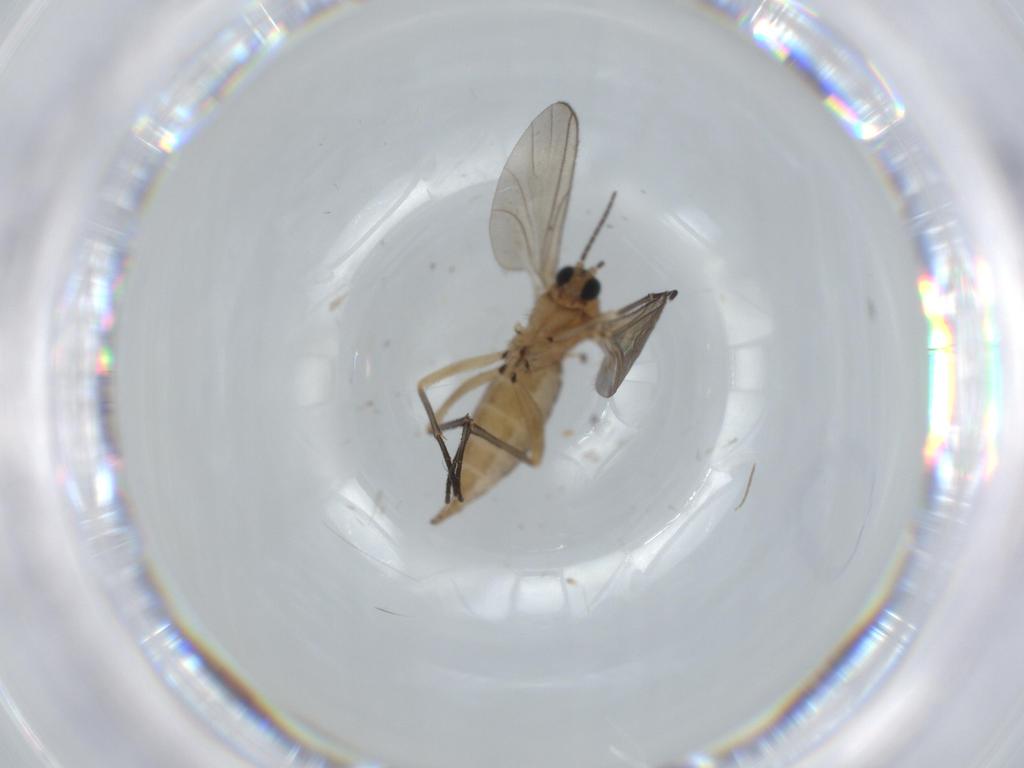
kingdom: Animalia
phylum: Arthropoda
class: Insecta
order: Diptera
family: Sciaridae
